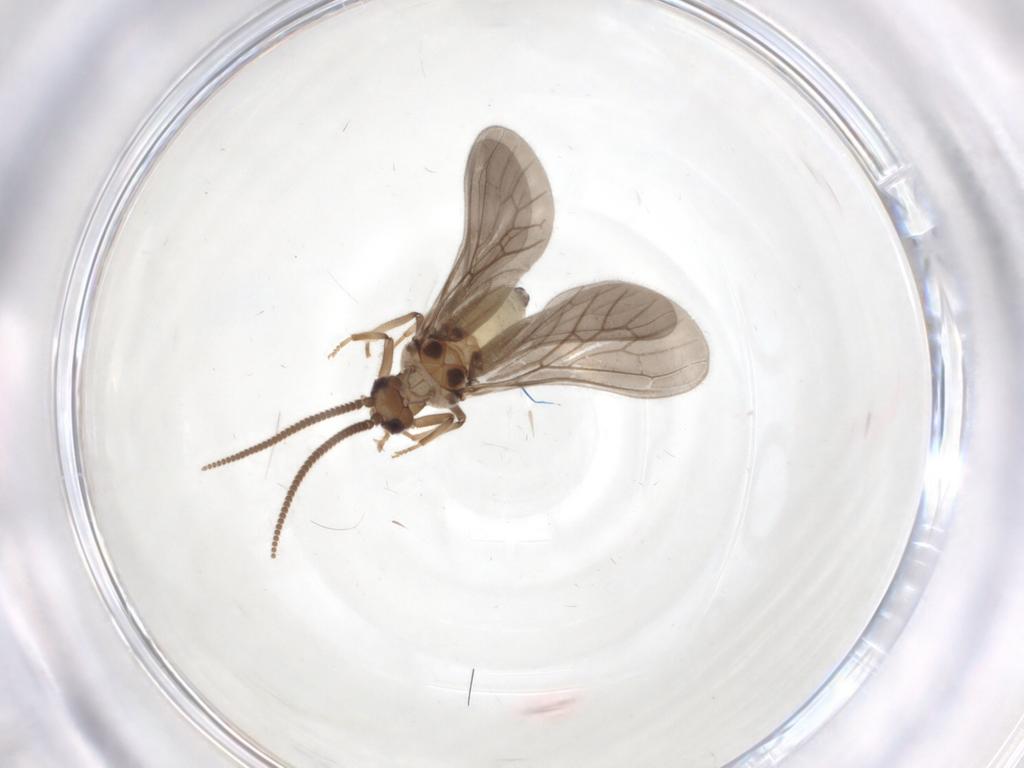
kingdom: Animalia
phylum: Arthropoda
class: Insecta
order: Neuroptera
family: Coniopterygidae
